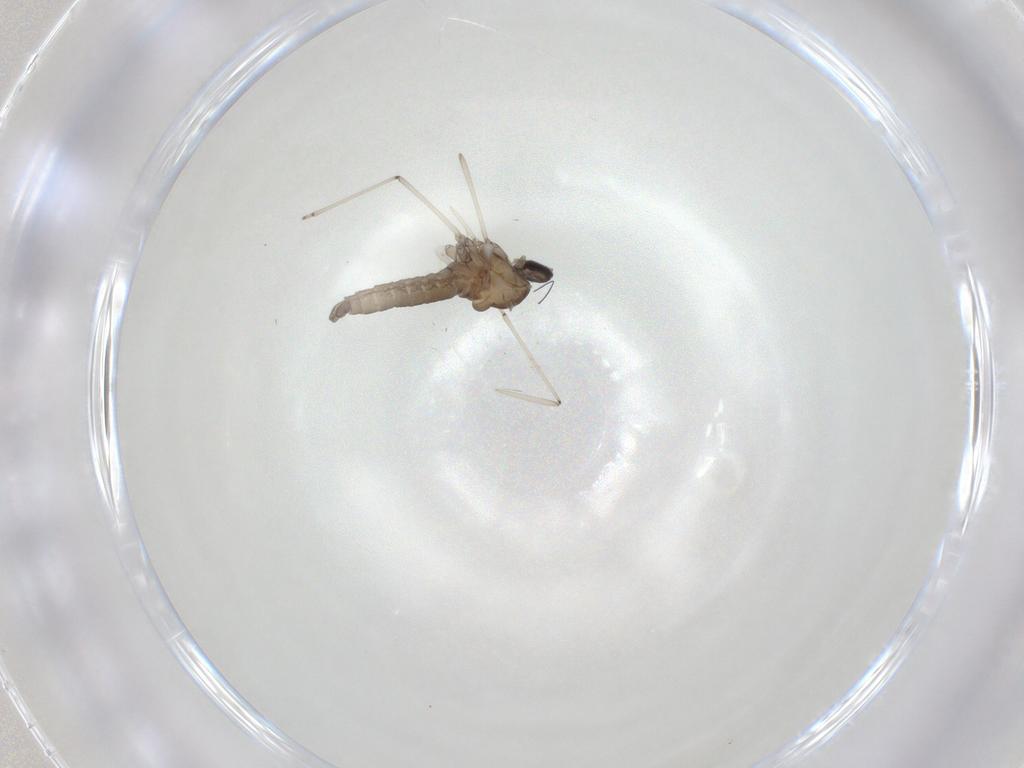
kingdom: Animalia
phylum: Arthropoda
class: Insecta
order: Diptera
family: Cecidomyiidae
